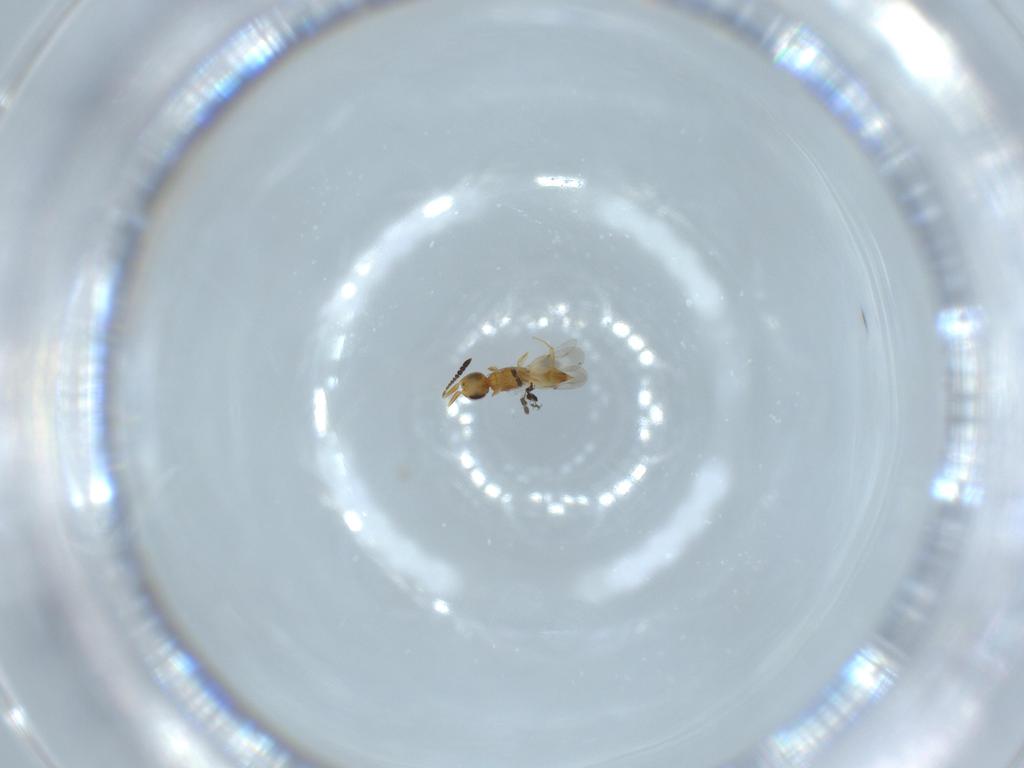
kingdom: Animalia
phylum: Arthropoda
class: Insecta
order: Hymenoptera
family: Ceraphronidae
